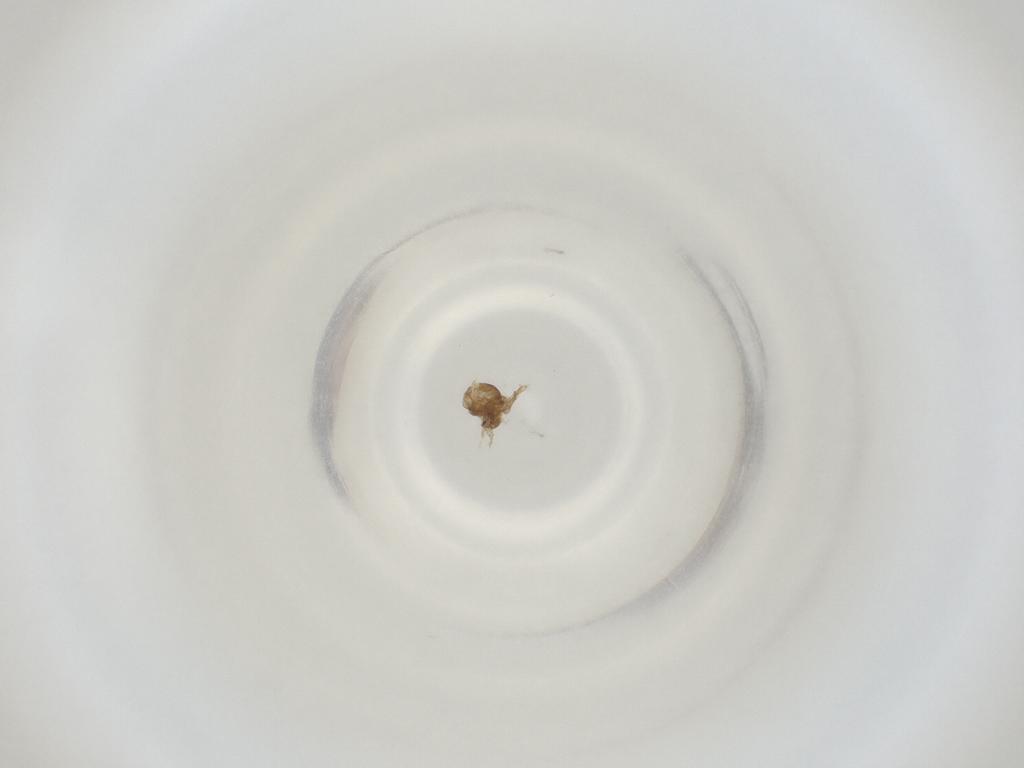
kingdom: Animalia
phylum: Arthropoda
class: Insecta
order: Diptera
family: Cecidomyiidae
